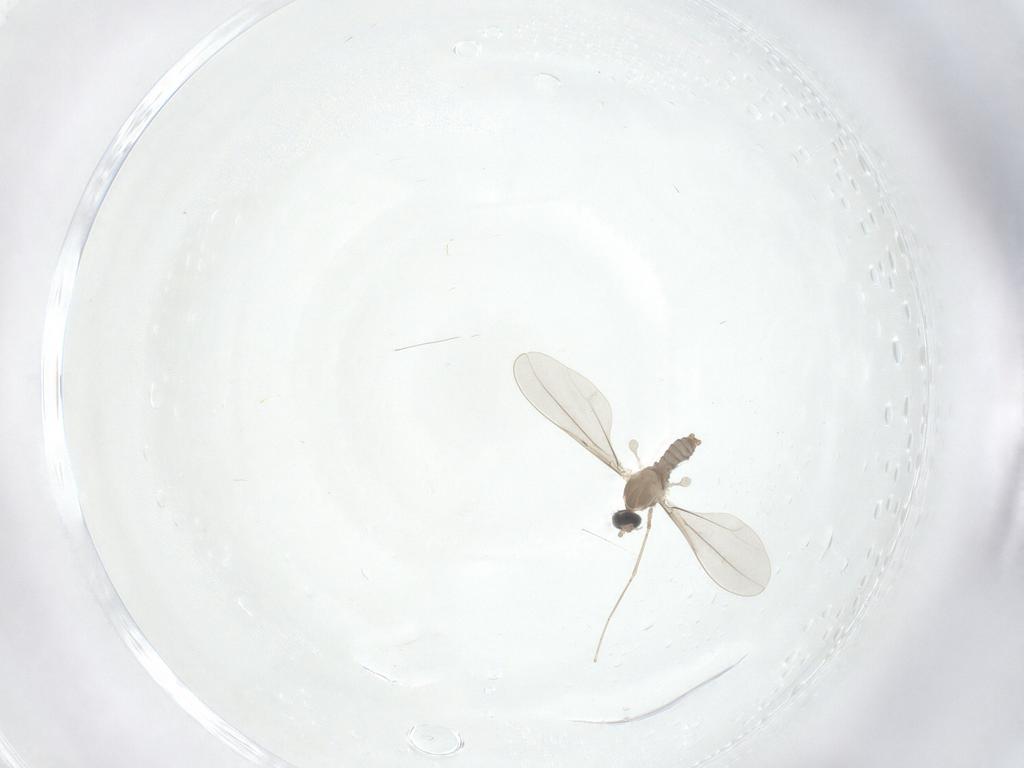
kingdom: Animalia
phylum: Arthropoda
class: Insecta
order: Diptera
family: Cecidomyiidae
